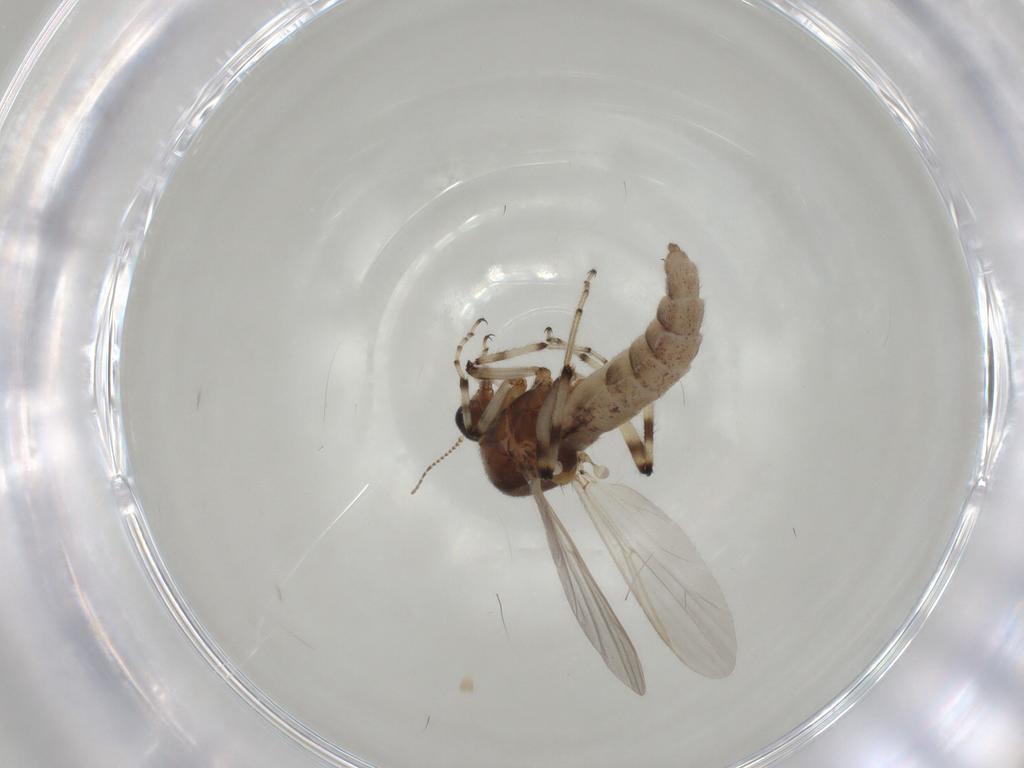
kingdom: Animalia
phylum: Arthropoda
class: Insecta
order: Diptera
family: Ceratopogonidae
